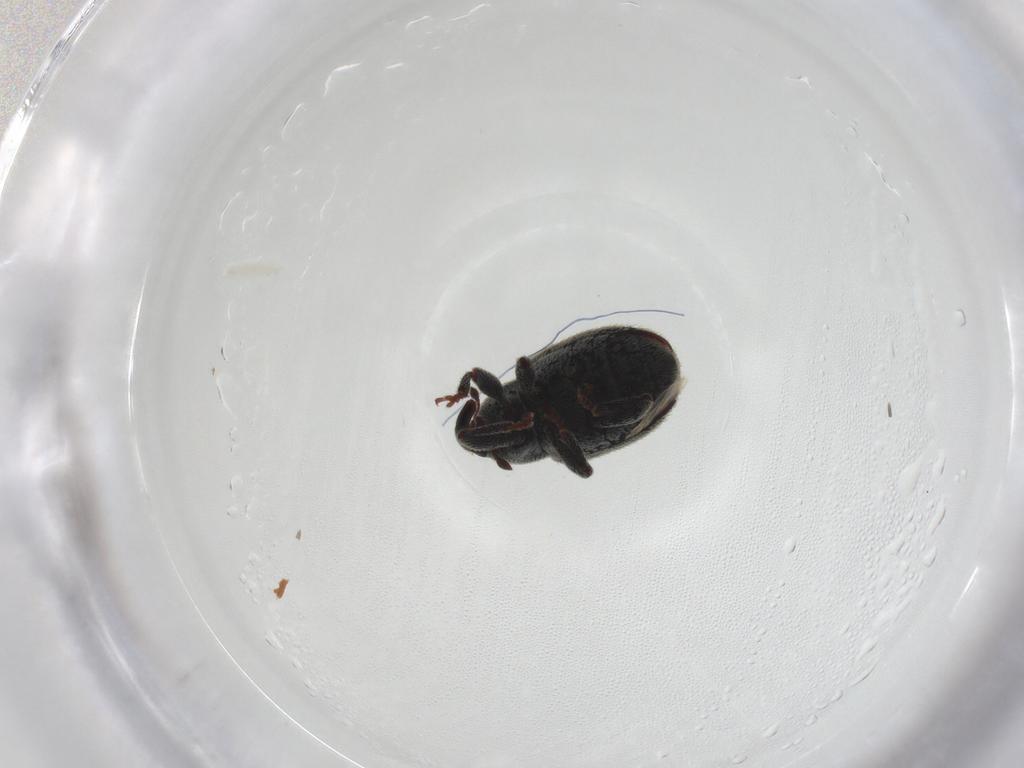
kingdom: Animalia
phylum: Arthropoda
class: Insecta
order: Coleoptera
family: Curculionidae
